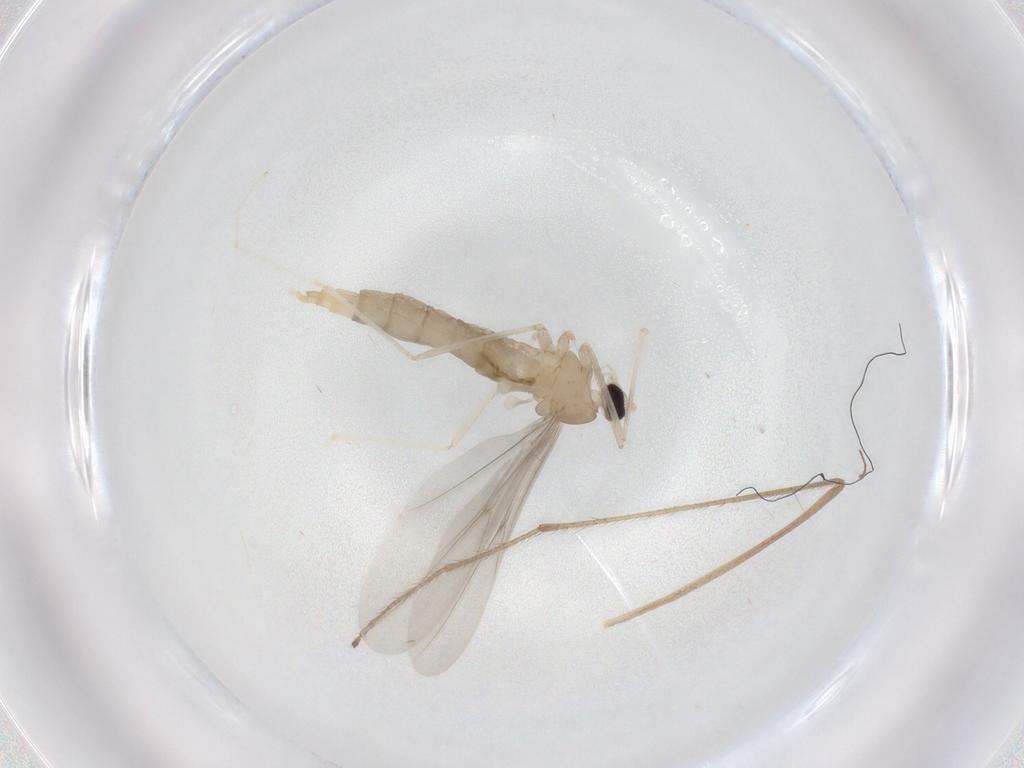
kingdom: Animalia
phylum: Arthropoda
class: Insecta
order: Diptera
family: Cecidomyiidae
